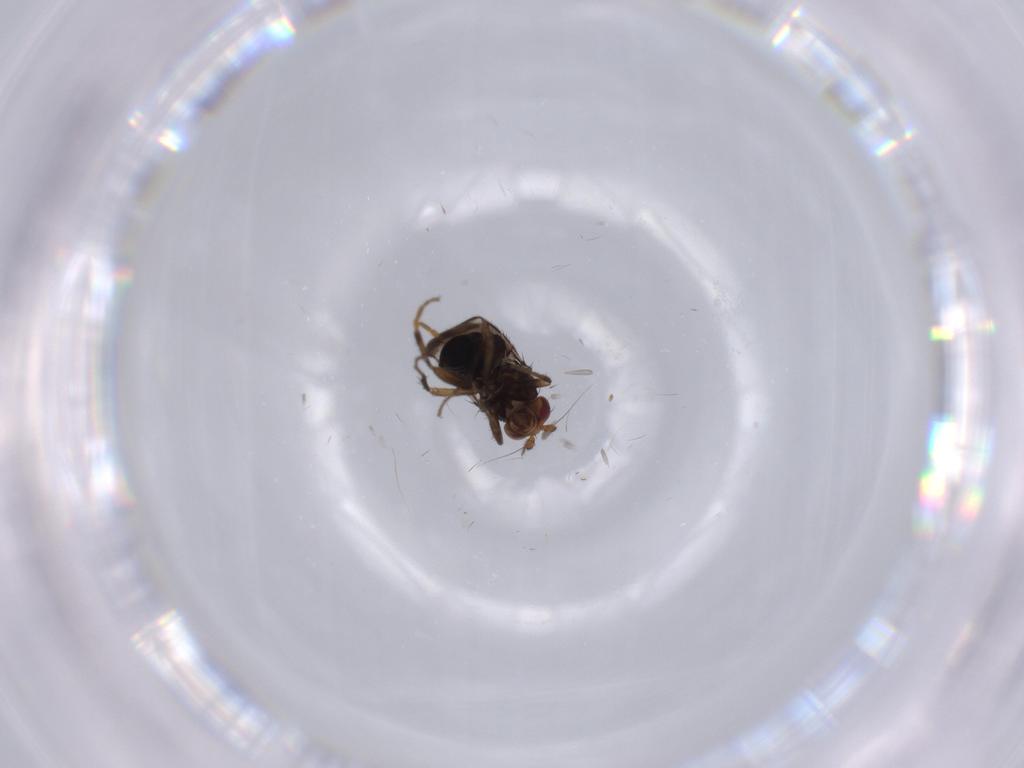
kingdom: Animalia
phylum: Arthropoda
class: Insecta
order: Diptera
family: Sphaeroceridae
